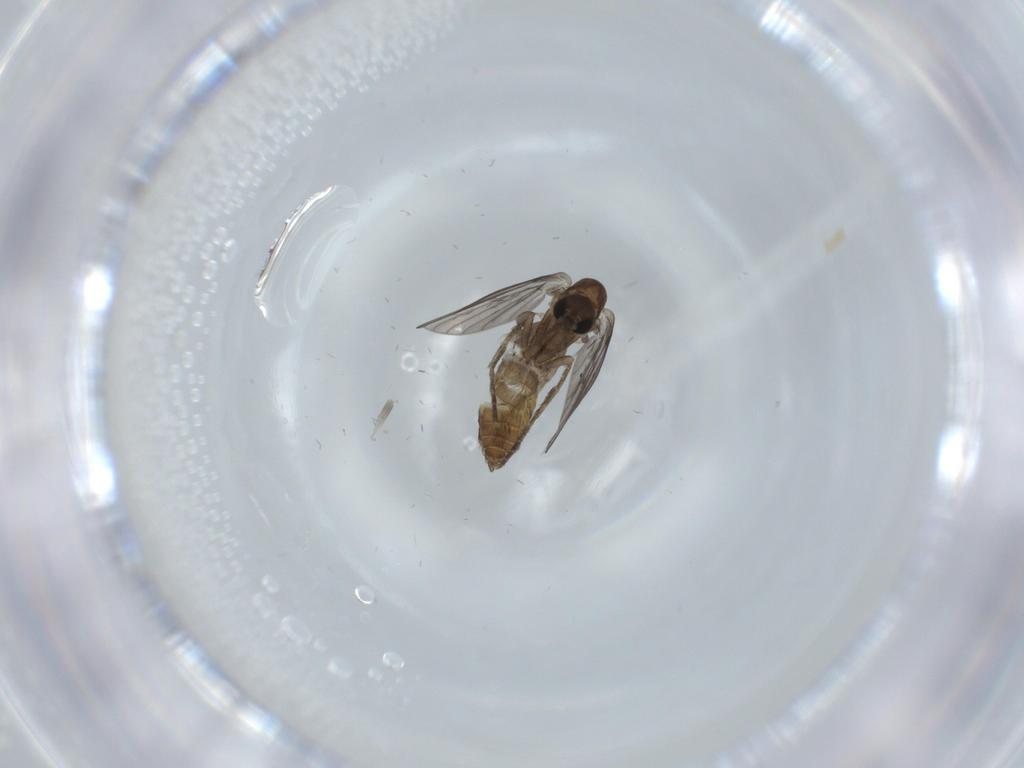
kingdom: Animalia
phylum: Arthropoda
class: Insecta
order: Diptera
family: Psychodidae
